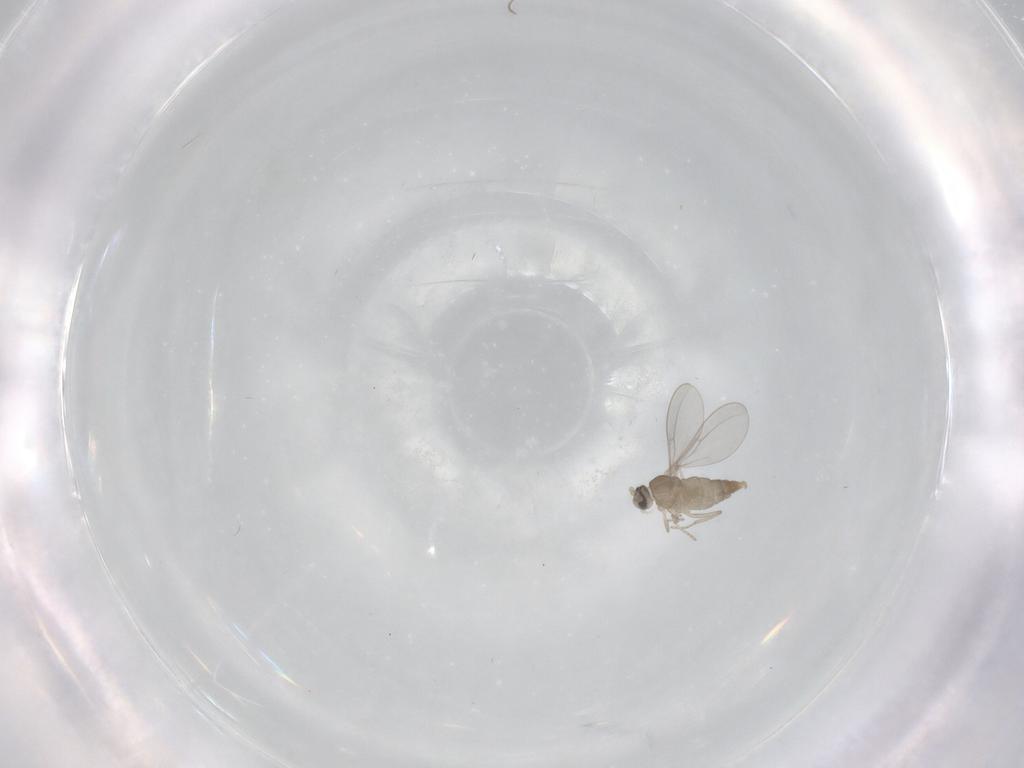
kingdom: Animalia
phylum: Arthropoda
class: Insecta
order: Diptera
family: Cecidomyiidae
